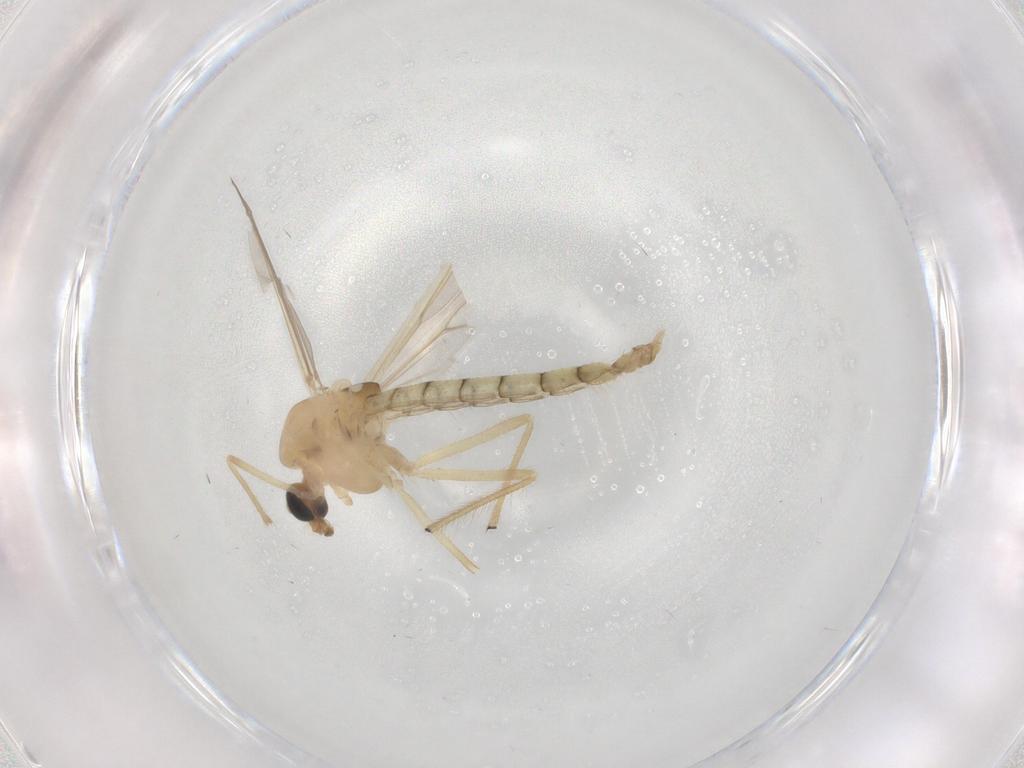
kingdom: Animalia
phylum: Arthropoda
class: Insecta
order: Diptera
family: Chironomidae
